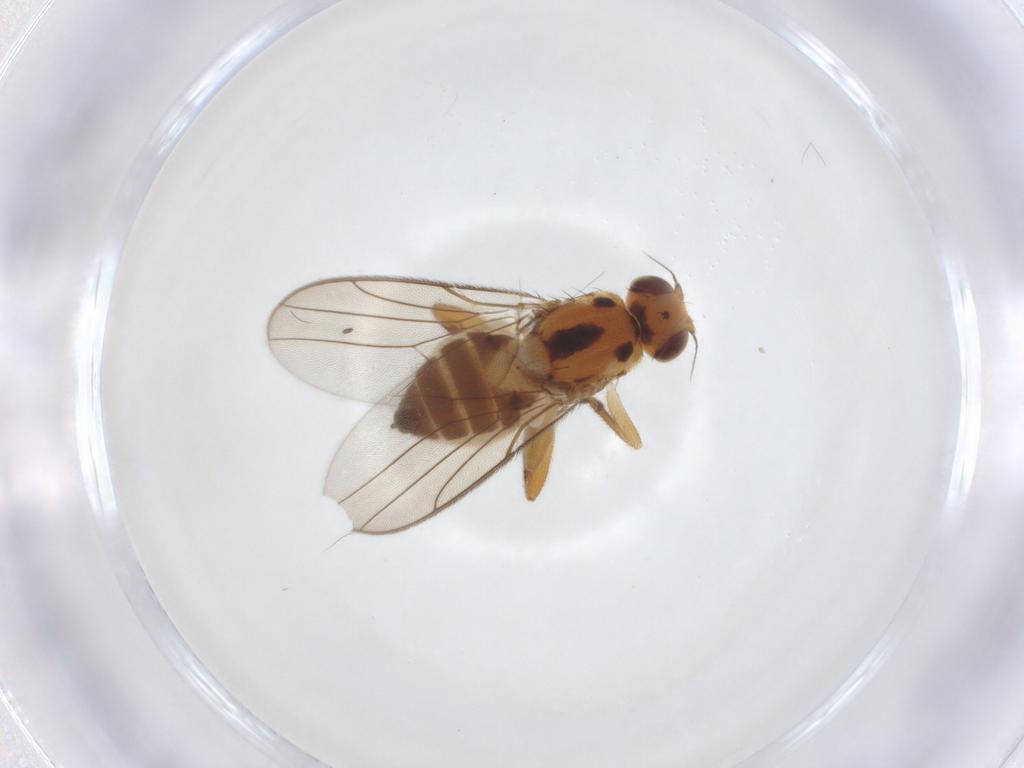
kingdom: Animalia
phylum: Arthropoda
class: Insecta
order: Diptera
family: Chloropidae
